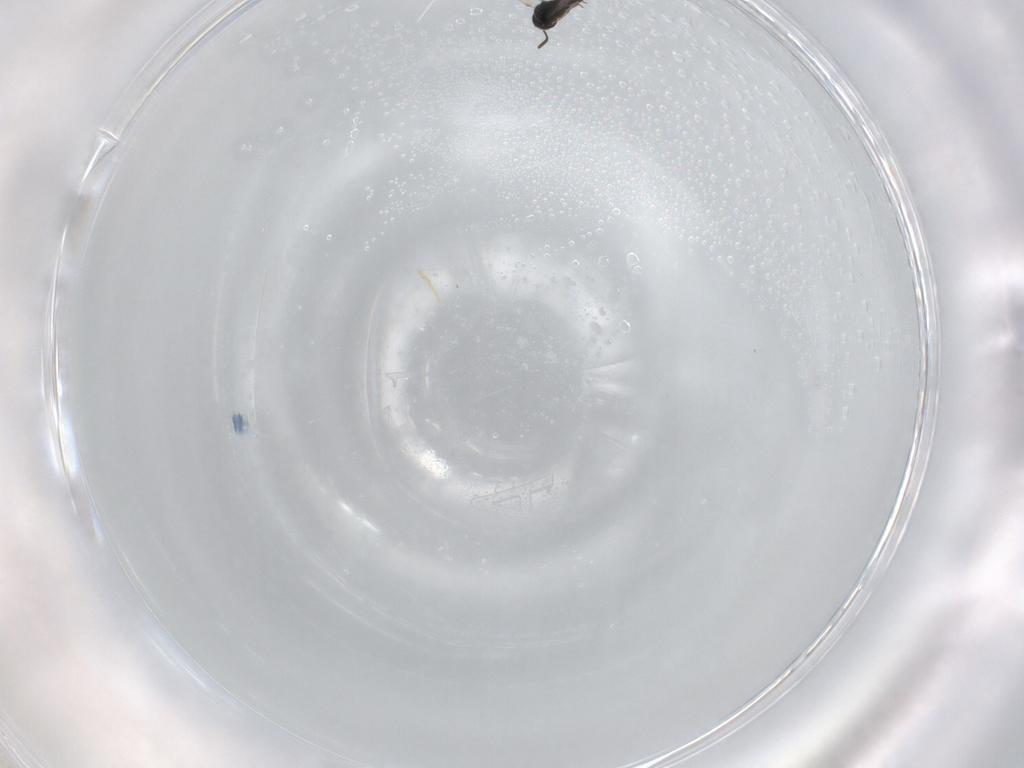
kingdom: Animalia
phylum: Arthropoda
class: Insecta
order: Hymenoptera
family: Scelionidae
